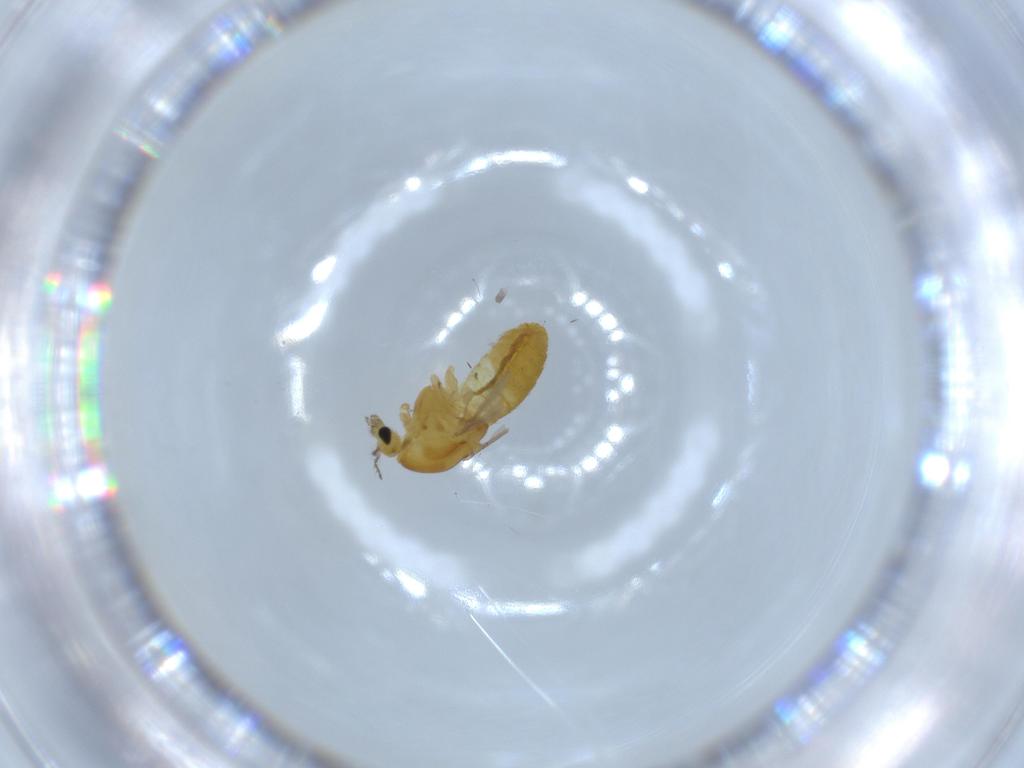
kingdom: Animalia
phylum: Arthropoda
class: Insecta
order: Diptera
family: Chironomidae
